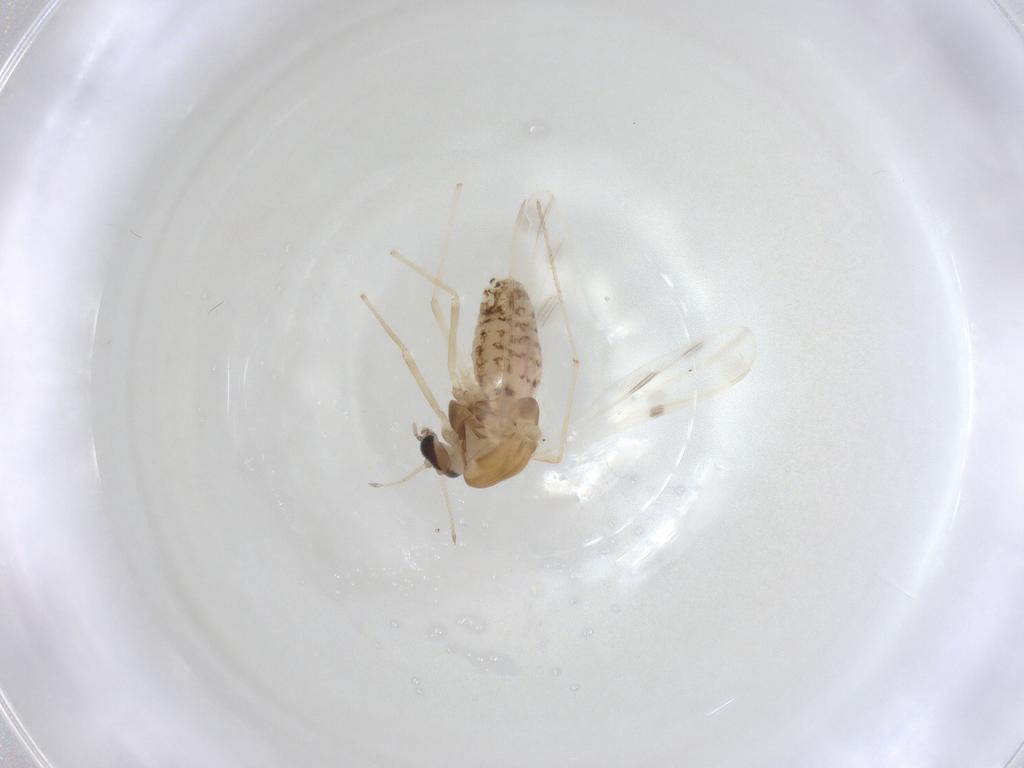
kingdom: Animalia
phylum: Arthropoda
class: Insecta
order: Diptera
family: Chironomidae
